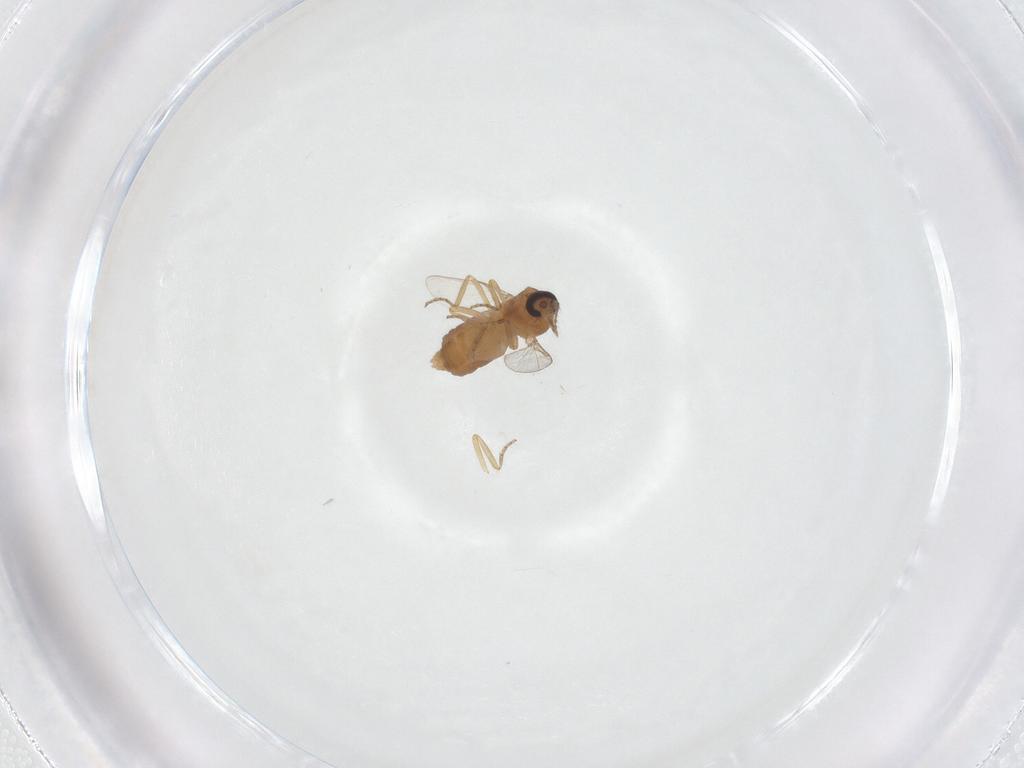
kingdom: Animalia
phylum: Arthropoda
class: Insecta
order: Diptera
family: Ceratopogonidae
